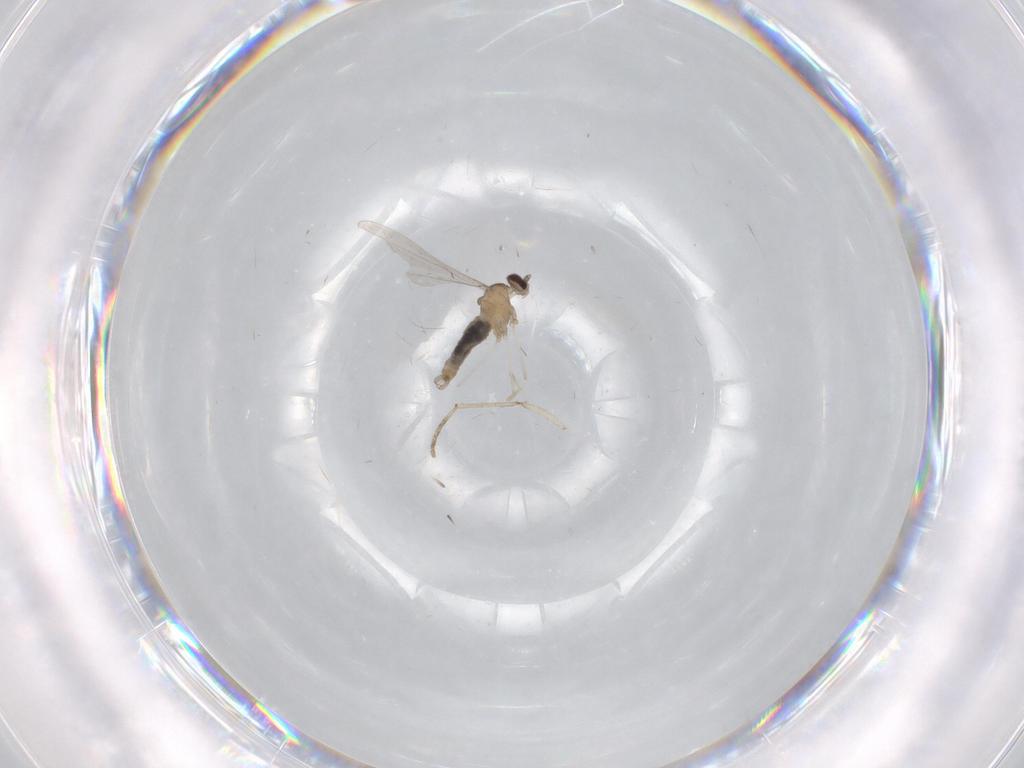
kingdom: Animalia
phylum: Arthropoda
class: Insecta
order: Diptera
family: Cecidomyiidae
